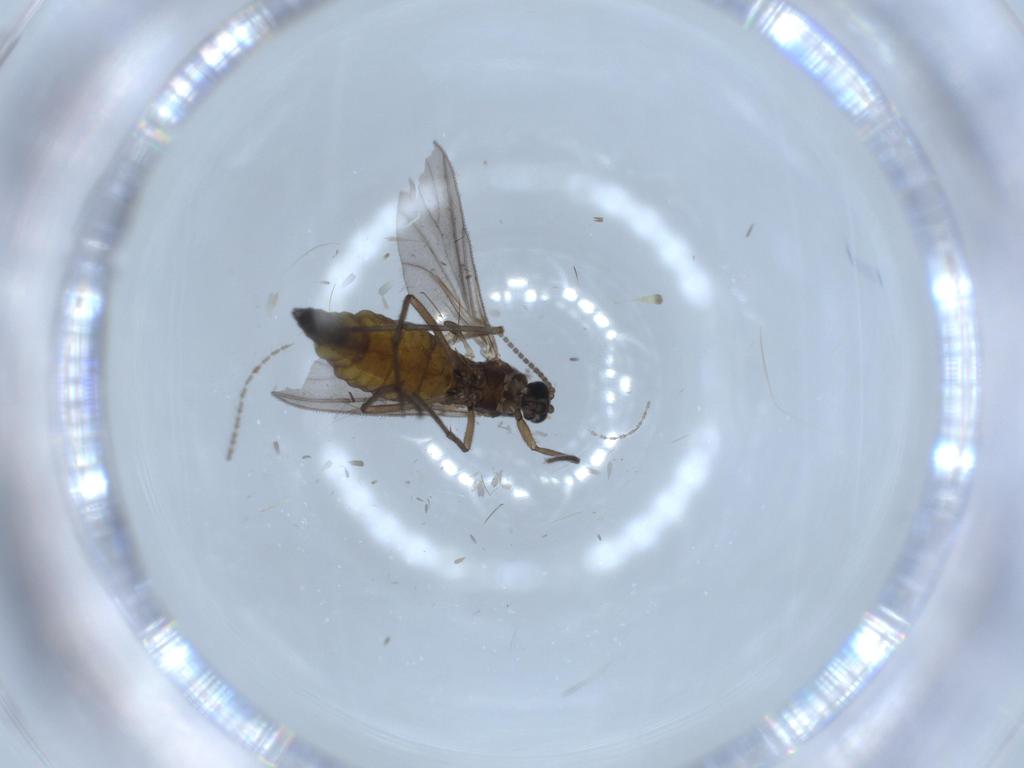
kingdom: Animalia
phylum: Arthropoda
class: Insecta
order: Diptera
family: Sciaridae
